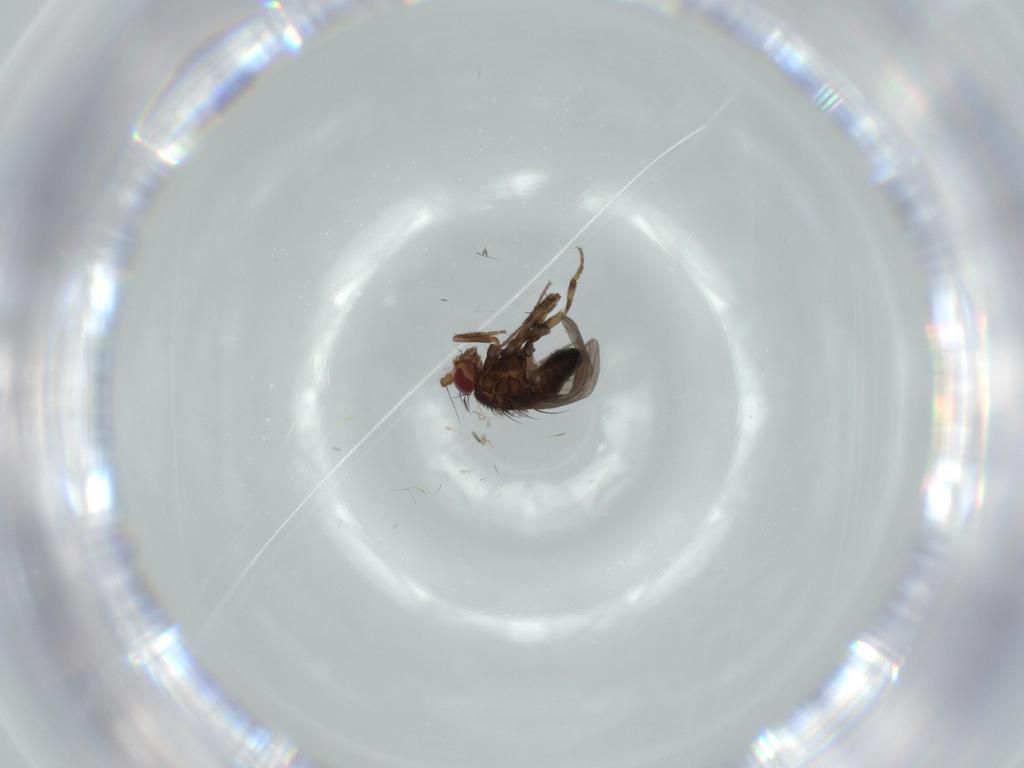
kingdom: Animalia
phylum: Arthropoda
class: Insecta
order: Diptera
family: Sphaeroceridae
